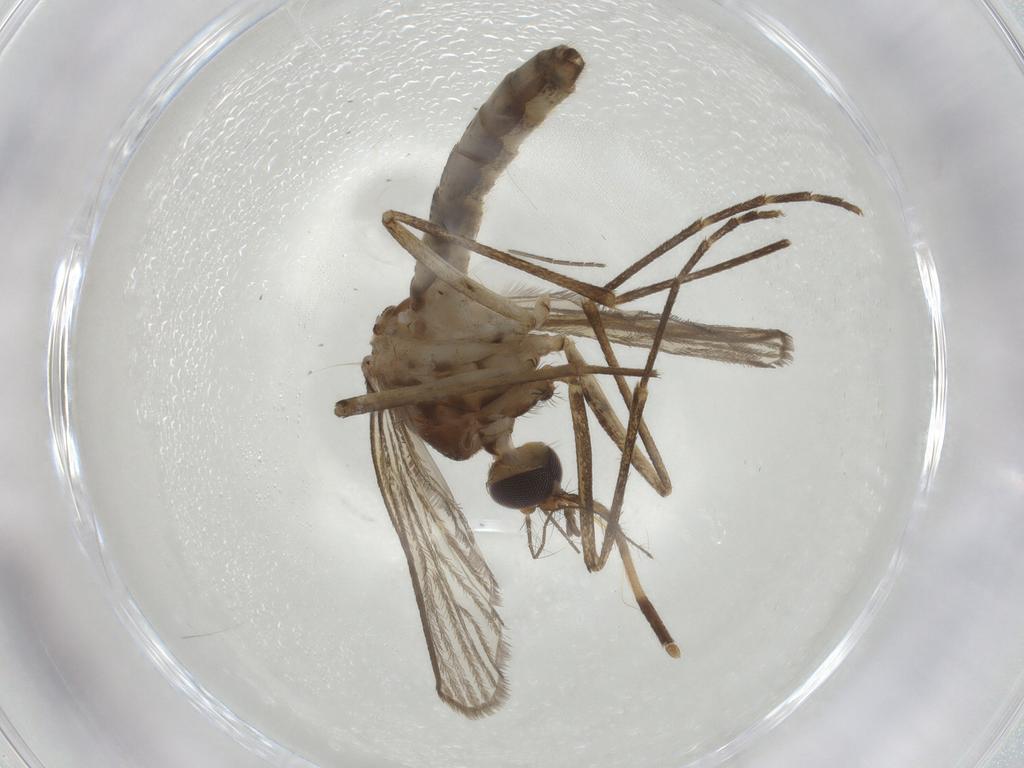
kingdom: Animalia
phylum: Arthropoda
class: Insecta
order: Diptera
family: Culicidae
